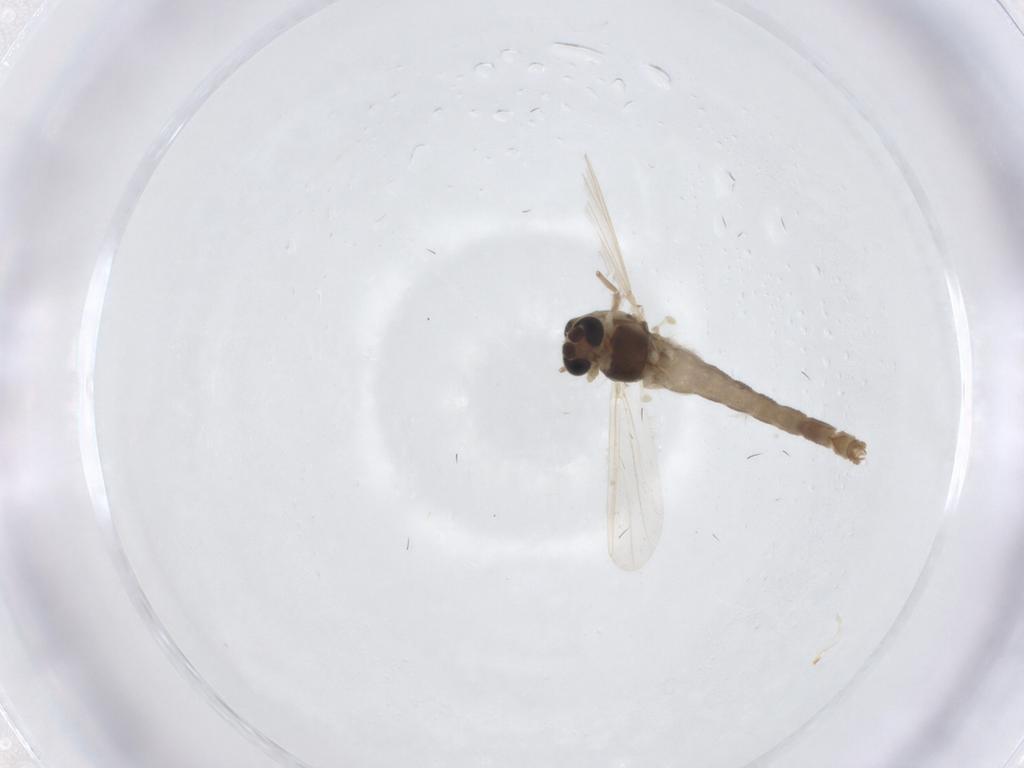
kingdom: Animalia
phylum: Arthropoda
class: Insecta
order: Diptera
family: Chironomidae
